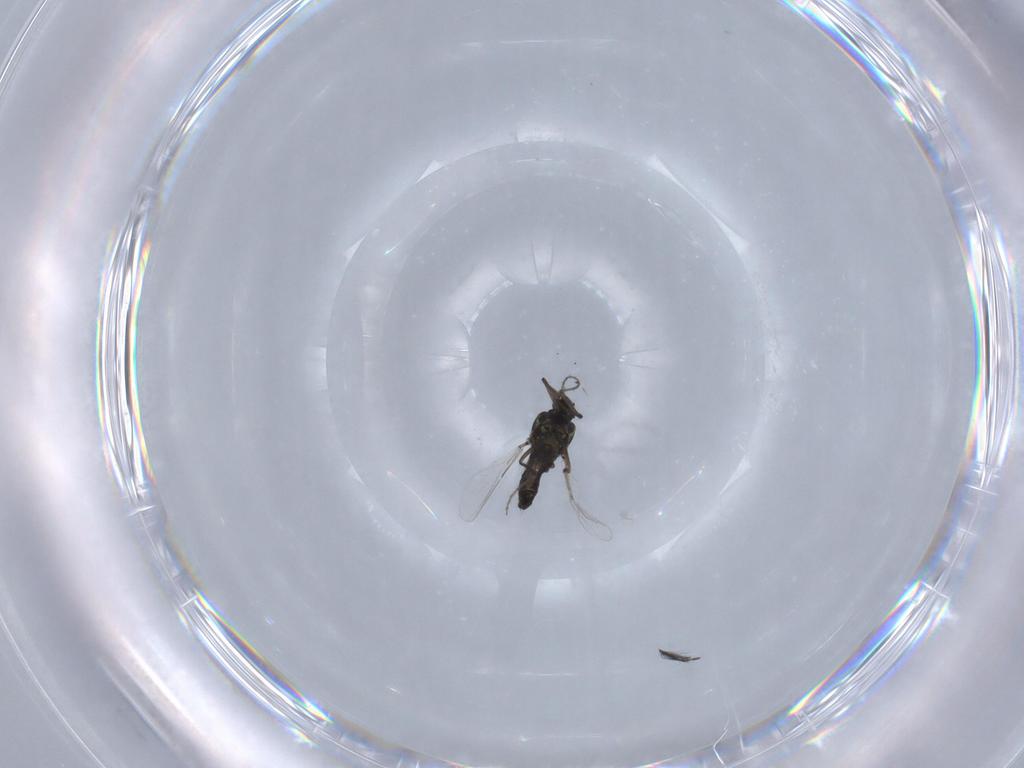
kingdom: Animalia
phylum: Arthropoda
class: Insecta
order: Diptera
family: Ceratopogonidae
